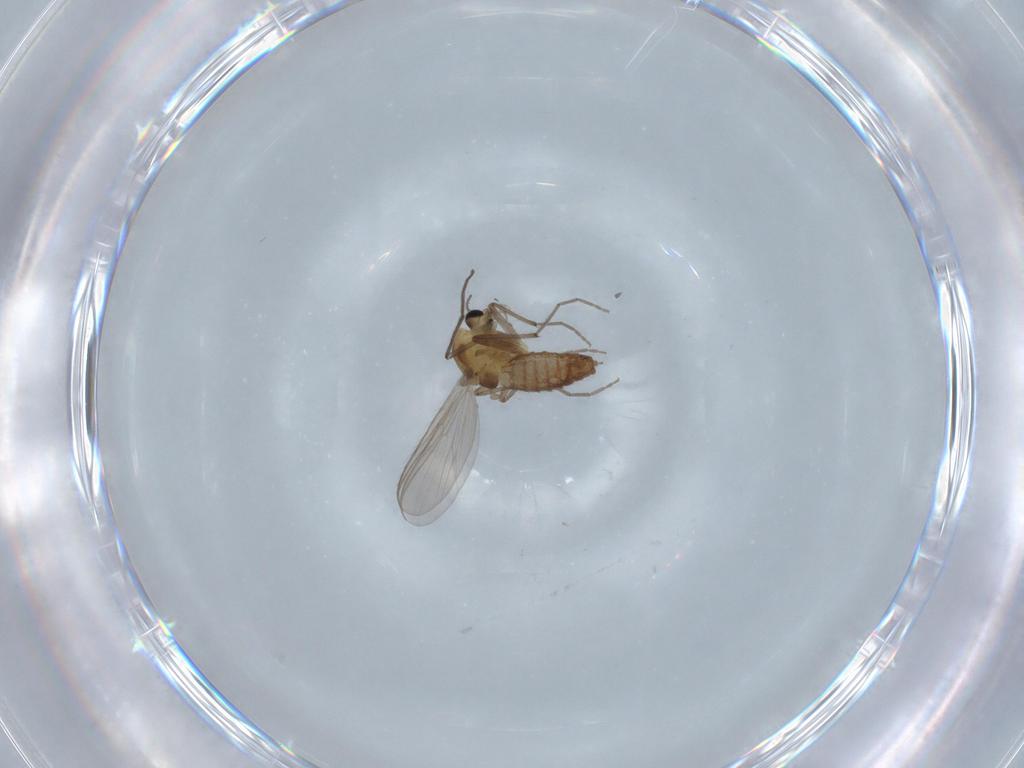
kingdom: Animalia
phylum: Arthropoda
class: Insecta
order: Diptera
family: Chironomidae
